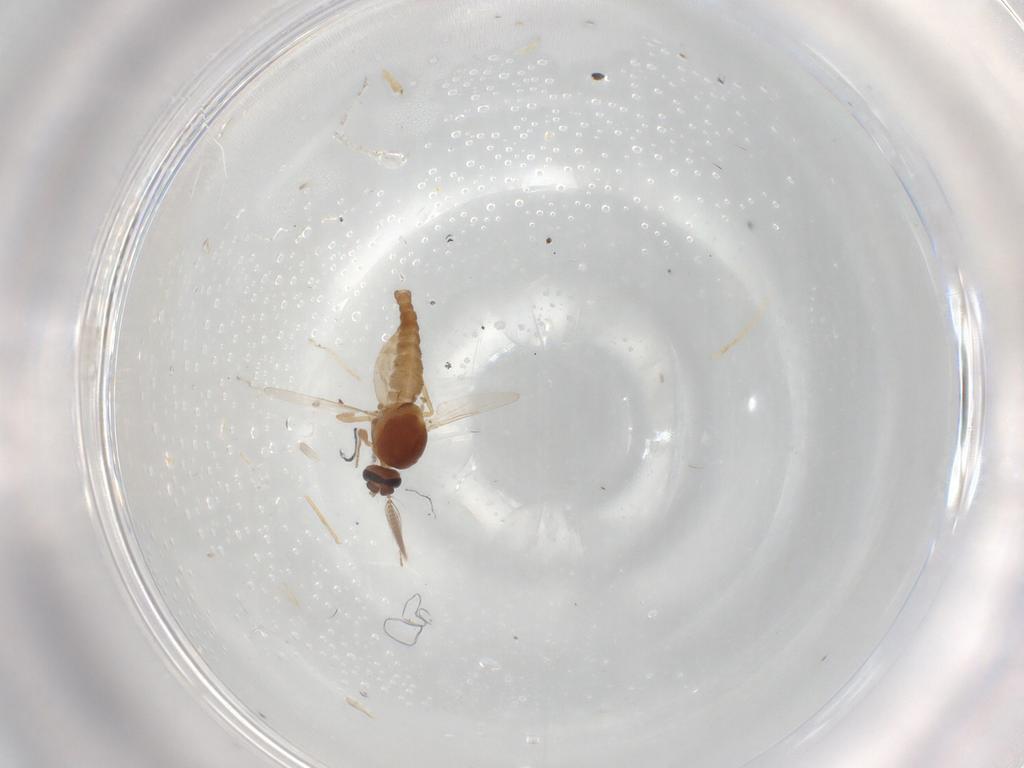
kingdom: Animalia
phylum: Arthropoda
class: Insecta
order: Diptera
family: Ceratopogonidae
